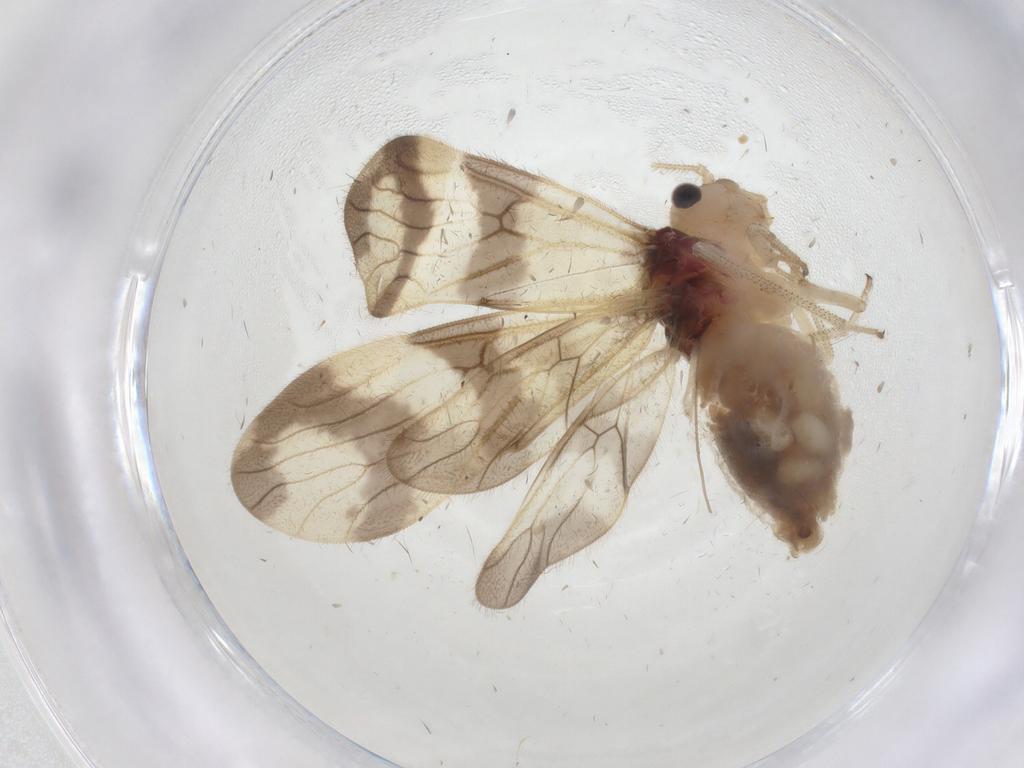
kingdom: Animalia
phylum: Arthropoda
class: Insecta
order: Psocodea
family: Amphipsocidae
